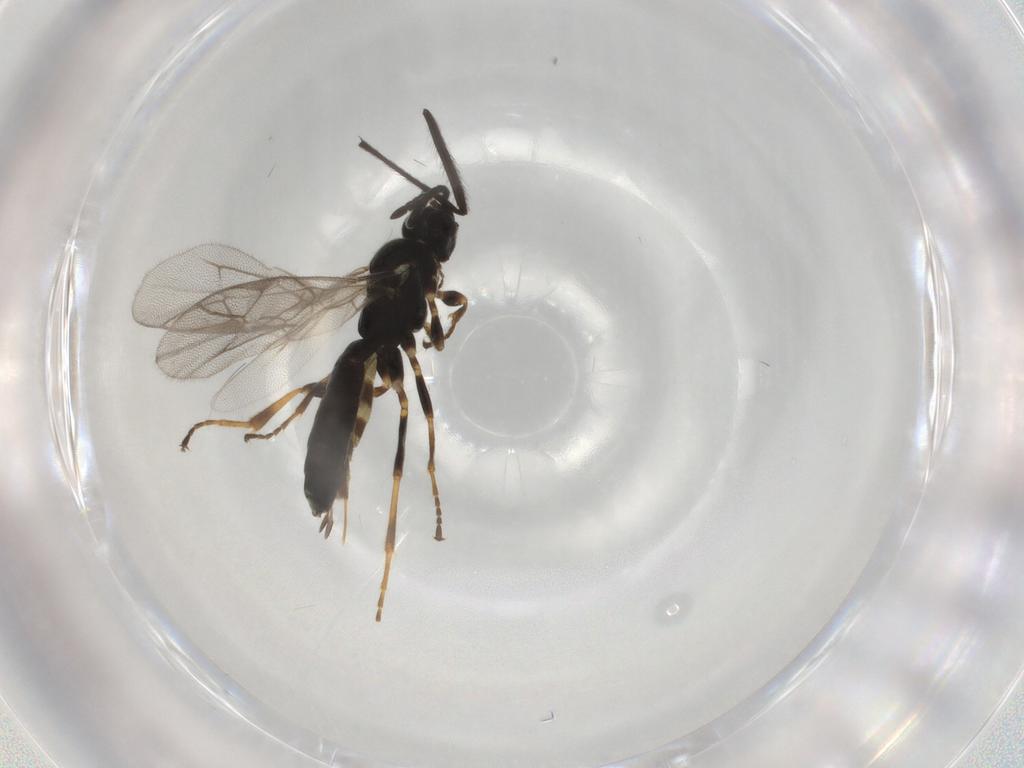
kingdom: Animalia
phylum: Arthropoda
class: Insecta
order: Hymenoptera
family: Ichneumonidae
